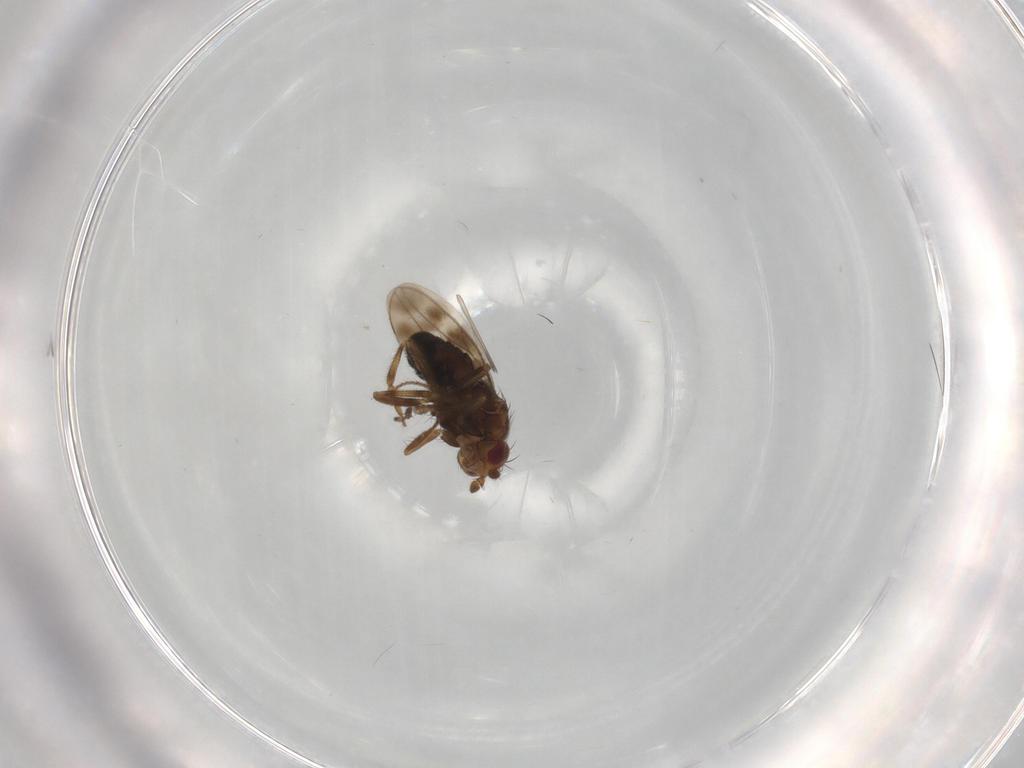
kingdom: Animalia
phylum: Arthropoda
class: Insecta
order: Diptera
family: Sphaeroceridae
